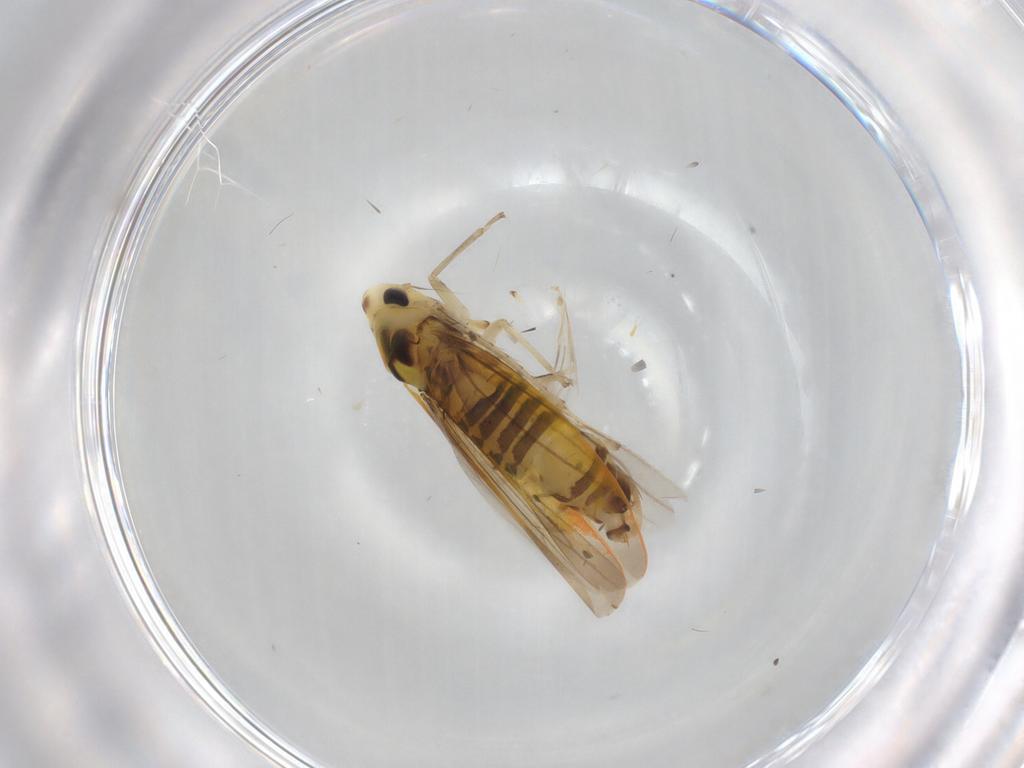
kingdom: Animalia
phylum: Arthropoda
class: Insecta
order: Hemiptera
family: Cicadellidae
